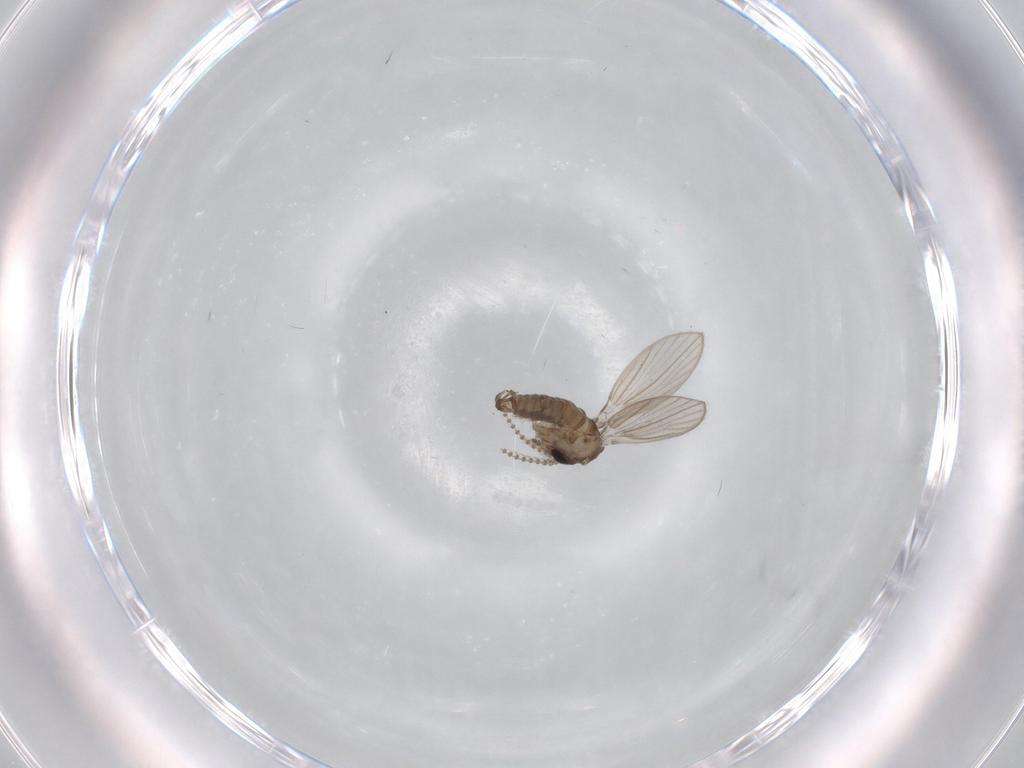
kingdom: Animalia
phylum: Arthropoda
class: Insecta
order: Diptera
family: Psychodidae
